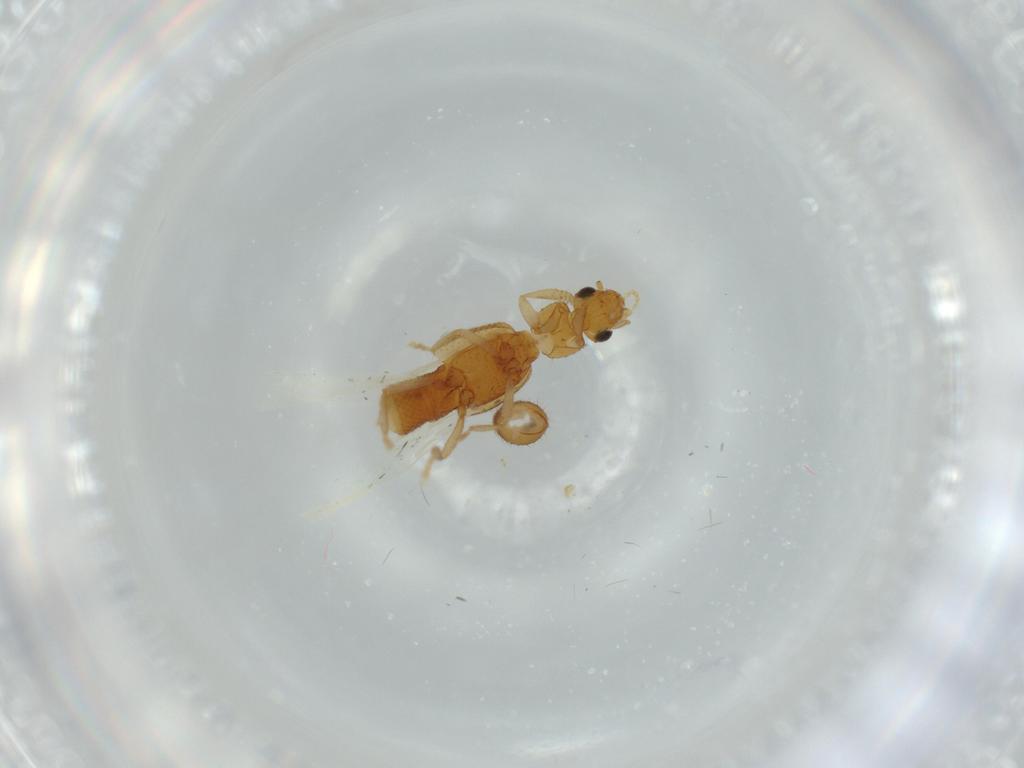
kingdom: Animalia
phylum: Arthropoda
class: Insecta
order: Coleoptera
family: Staphylinidae
